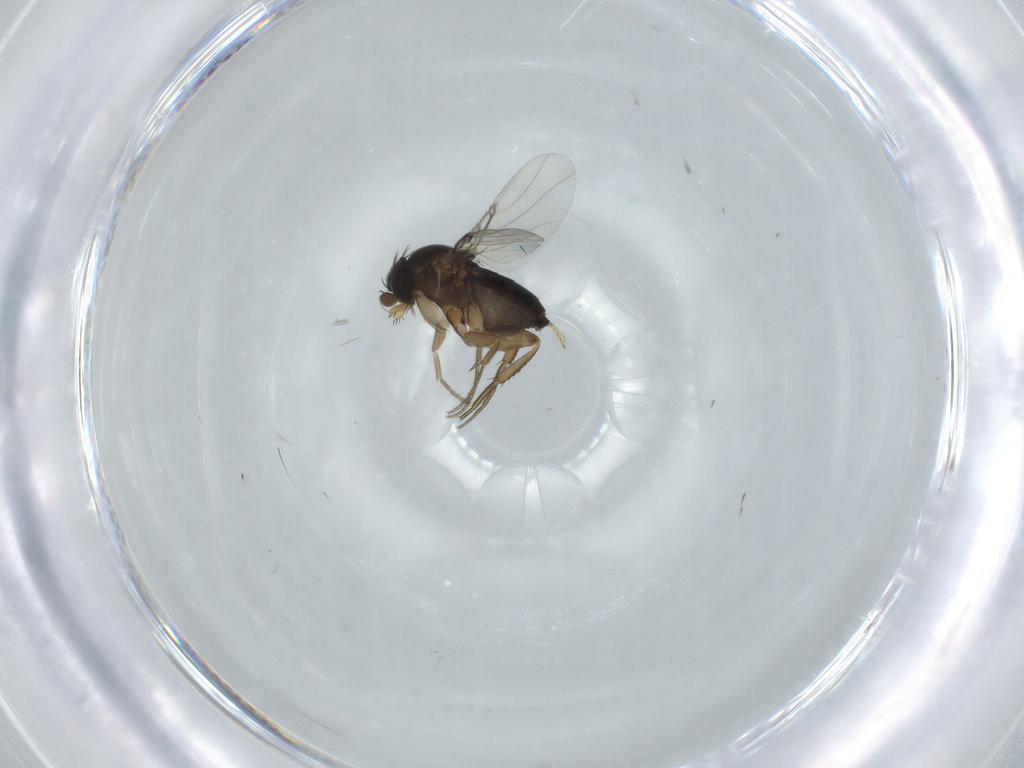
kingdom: Animalia
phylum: Arthropoda
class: Insecta
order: Diptera
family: Phoridae
